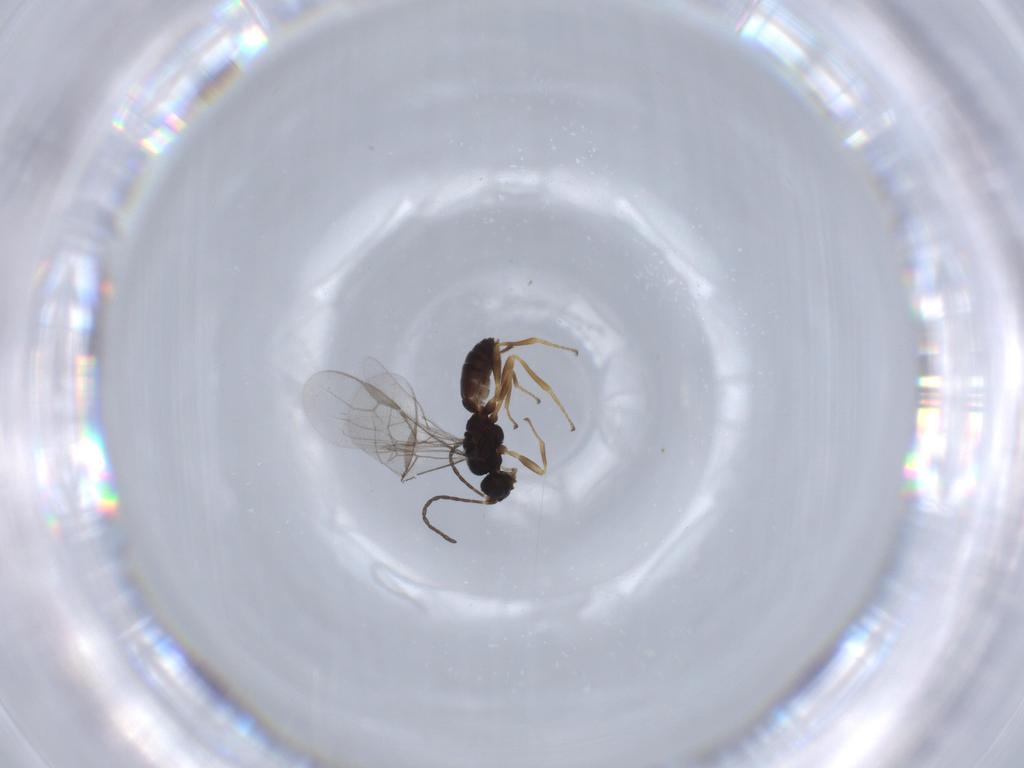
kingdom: Animalia
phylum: Arthropoda
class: Insecta
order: Hymenoptera
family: Braconidae
